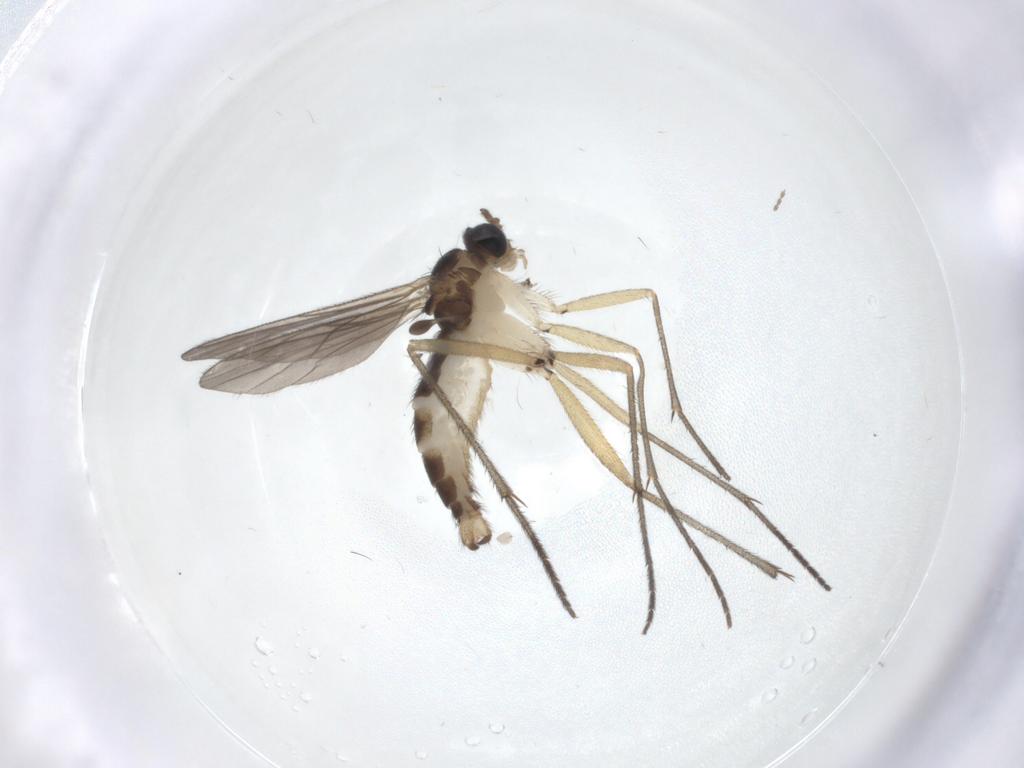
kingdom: Animalia
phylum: Arthropoda
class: Insecta
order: Diptera
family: Sciaridae
